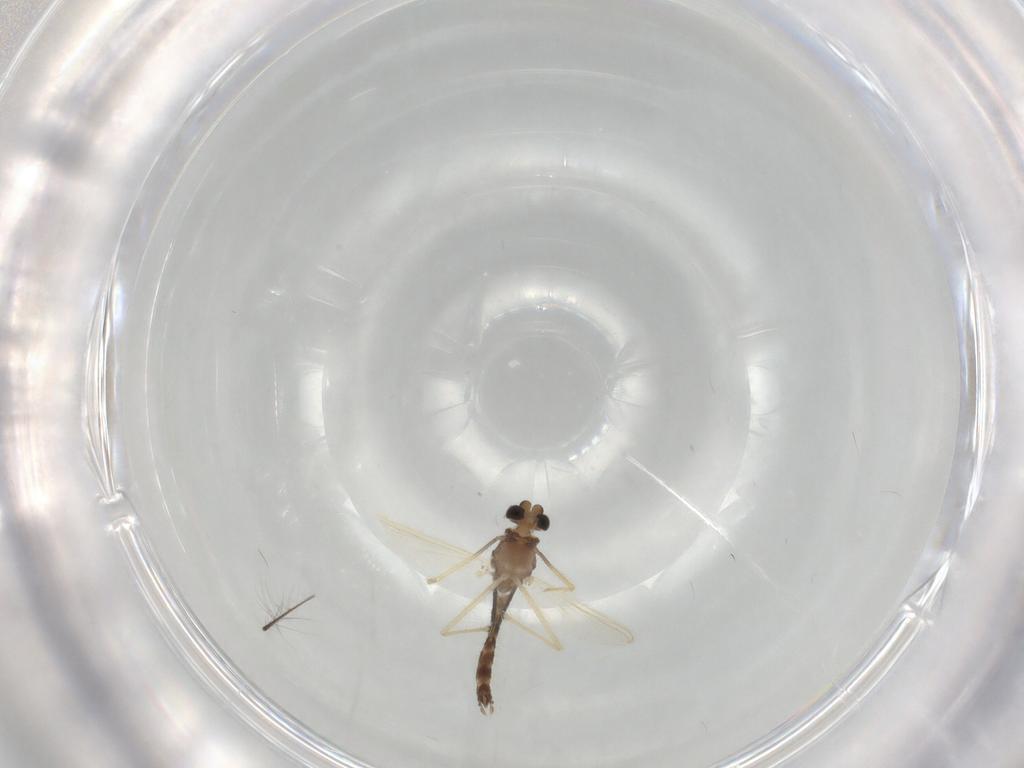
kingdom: Animalia
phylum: Arthropoda
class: Insecta
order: Diptera
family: Chironomidae
